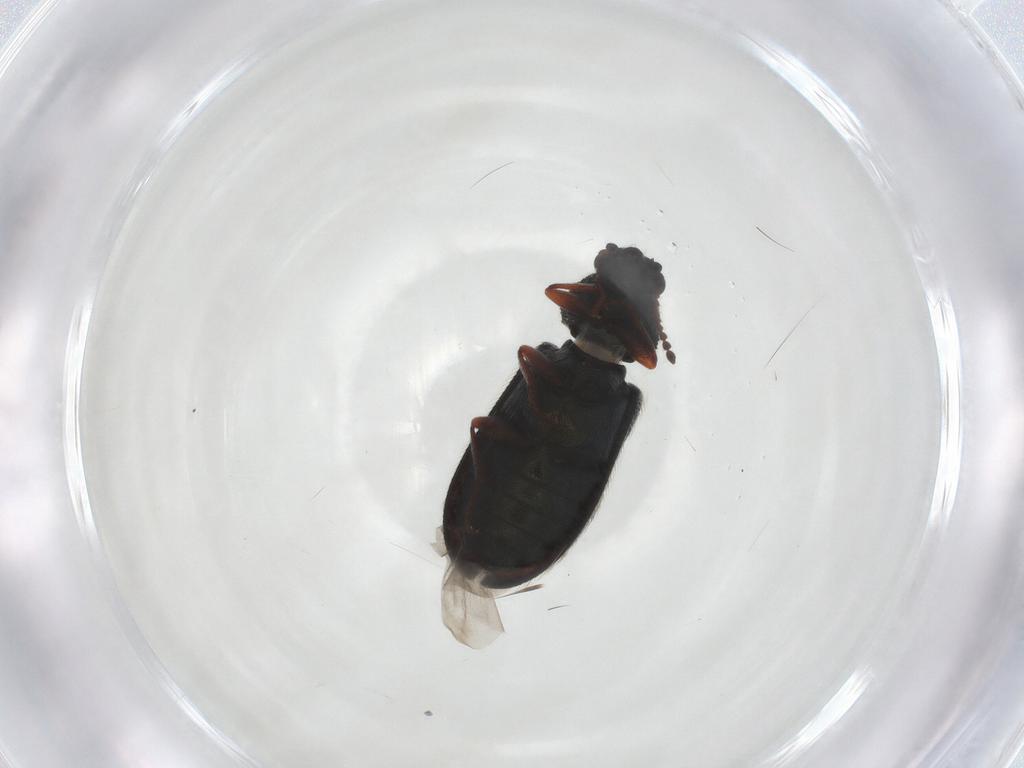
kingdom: Animalia
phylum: Arthropoda
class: Insecta
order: Coleoptera
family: Melyridae
